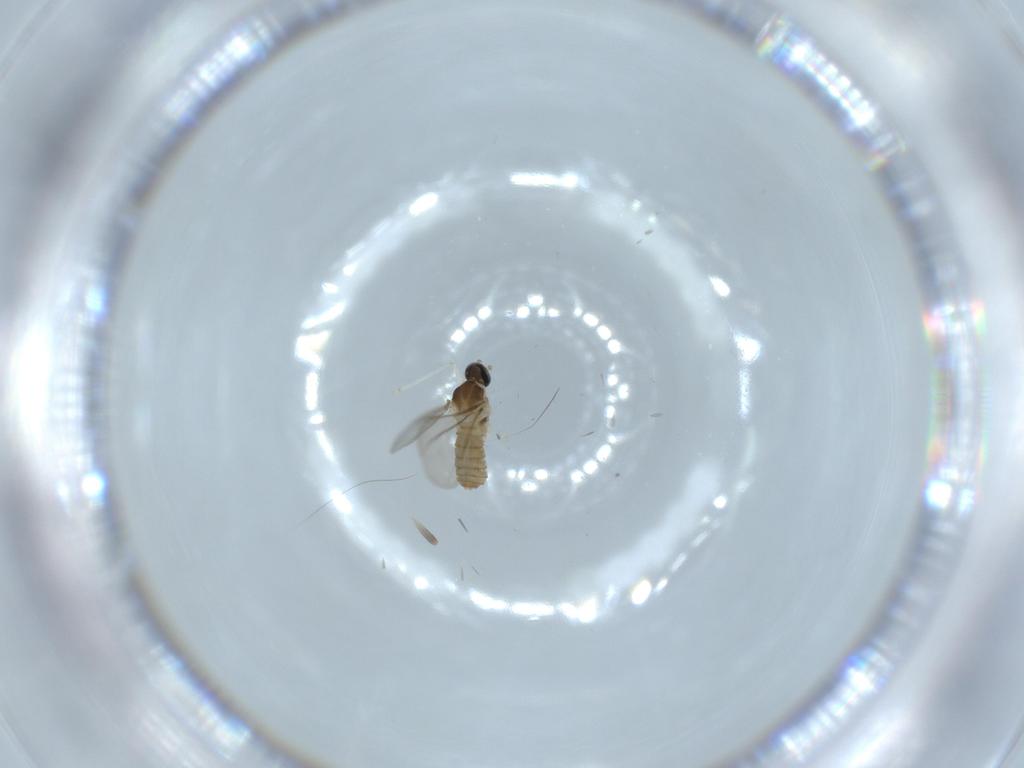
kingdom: Animalia
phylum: Arthropoda
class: Insecta
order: Diptera
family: Cecidomyiidae
